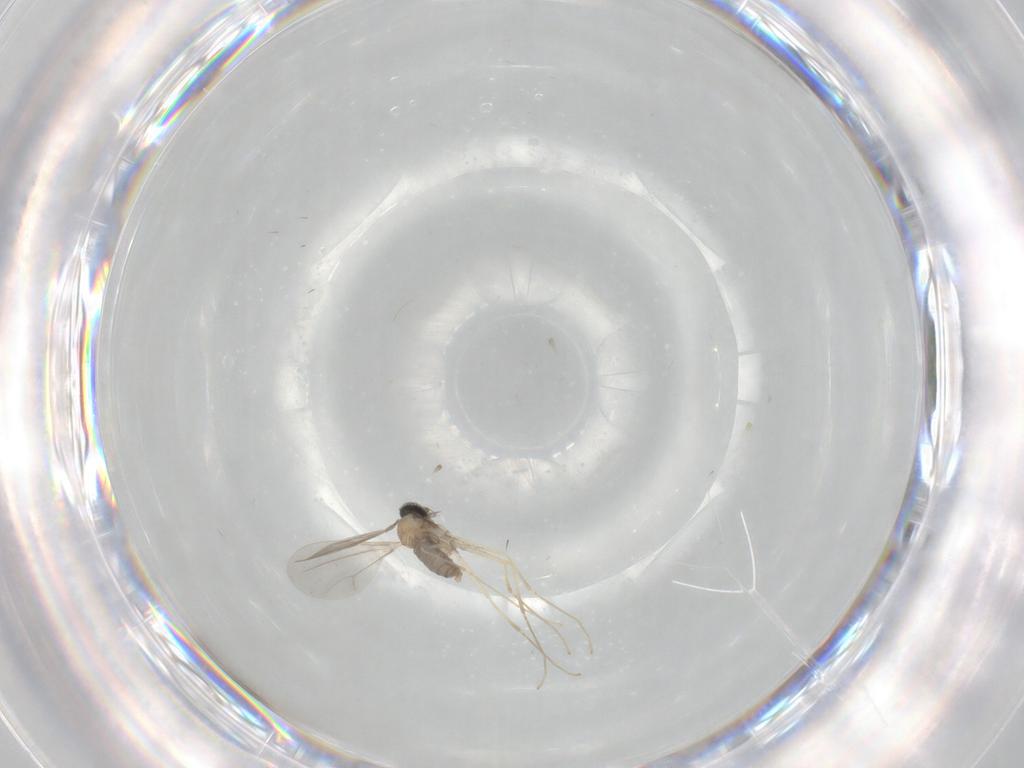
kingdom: Animalia
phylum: Arthropoda
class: Insecta
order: Diptera
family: Cecidomyiidae
